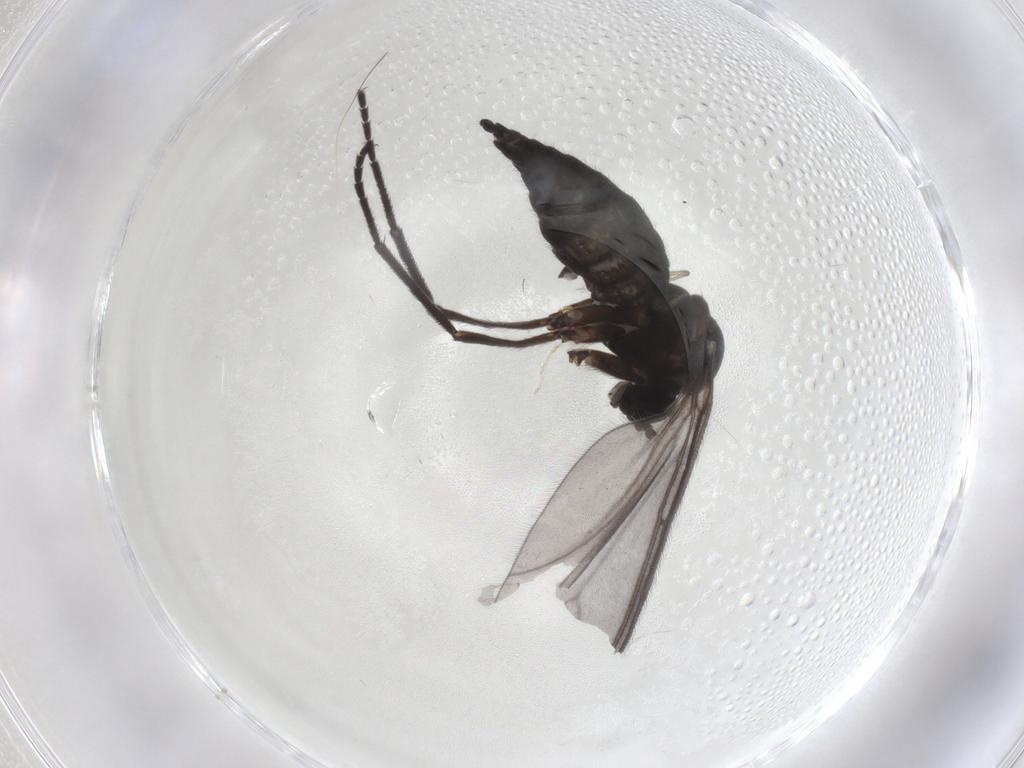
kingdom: Animalia
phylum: Arthropoda
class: Insecta
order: Diptera
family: Sciaridae
